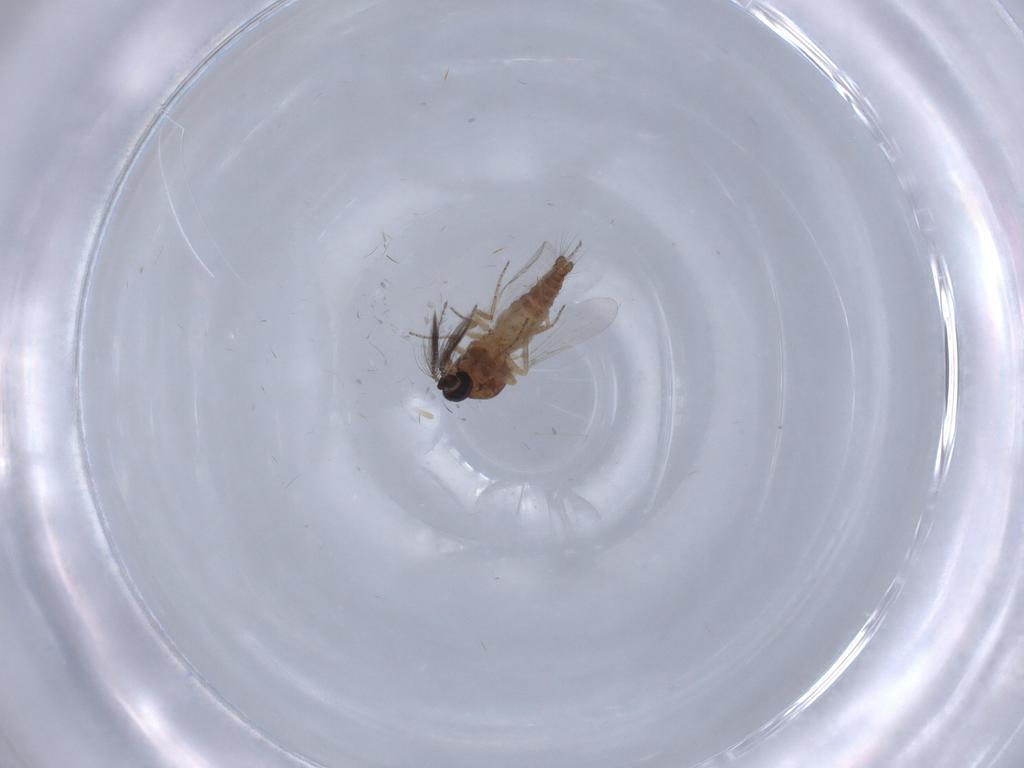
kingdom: Animalia
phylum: Arthropoda
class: Insecta
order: Diptera
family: Ceratopogonidae
